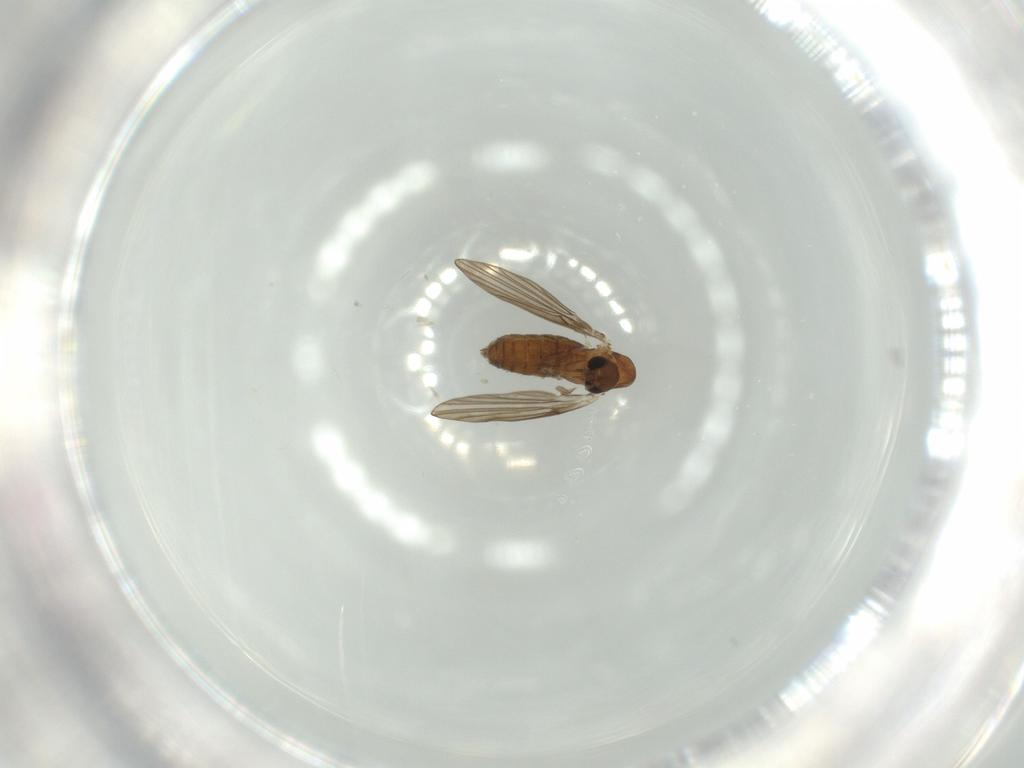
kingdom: Animalia
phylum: Arthropoda
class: Insecta
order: Diptera
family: Psychodidae
